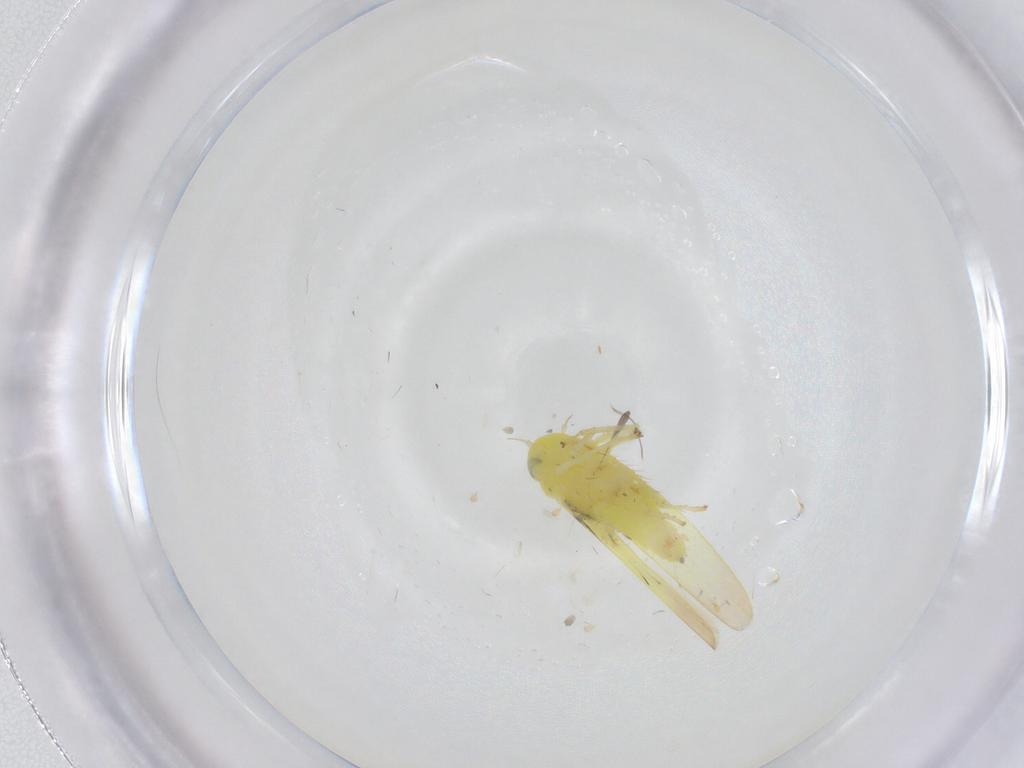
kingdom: Animalia
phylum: Arthropoda
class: Insecta
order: Hemiptera
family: Cicadellidae
